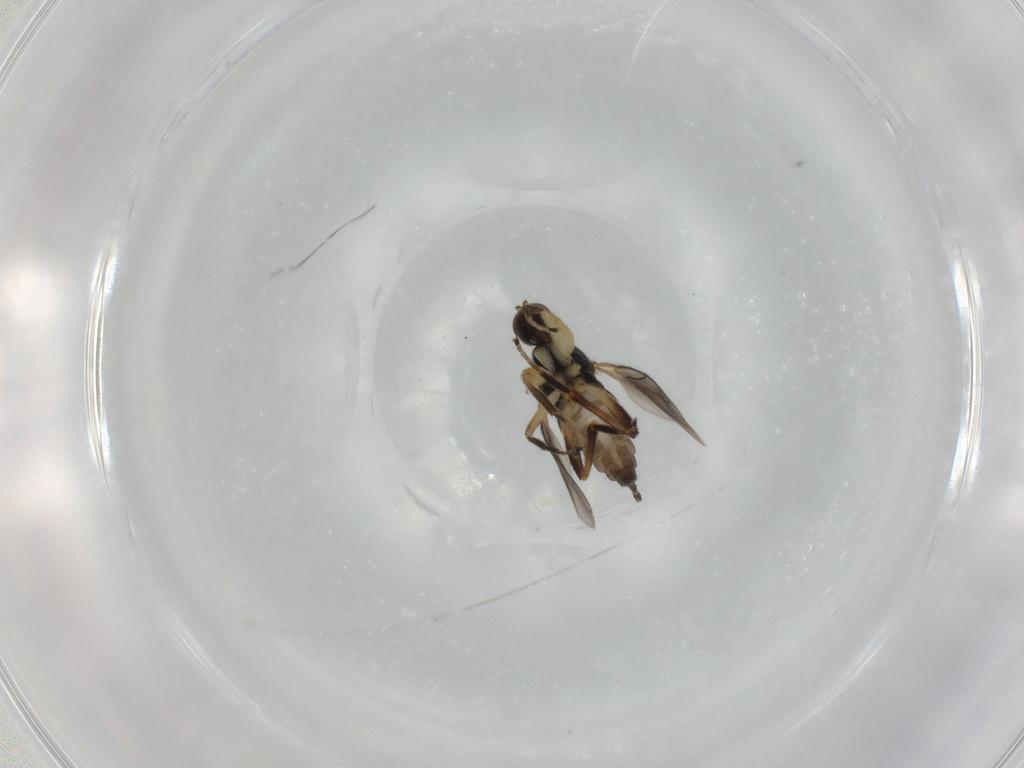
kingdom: Animalia
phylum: Arthropoda
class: Insecta
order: Diptera
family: Hybotidae
